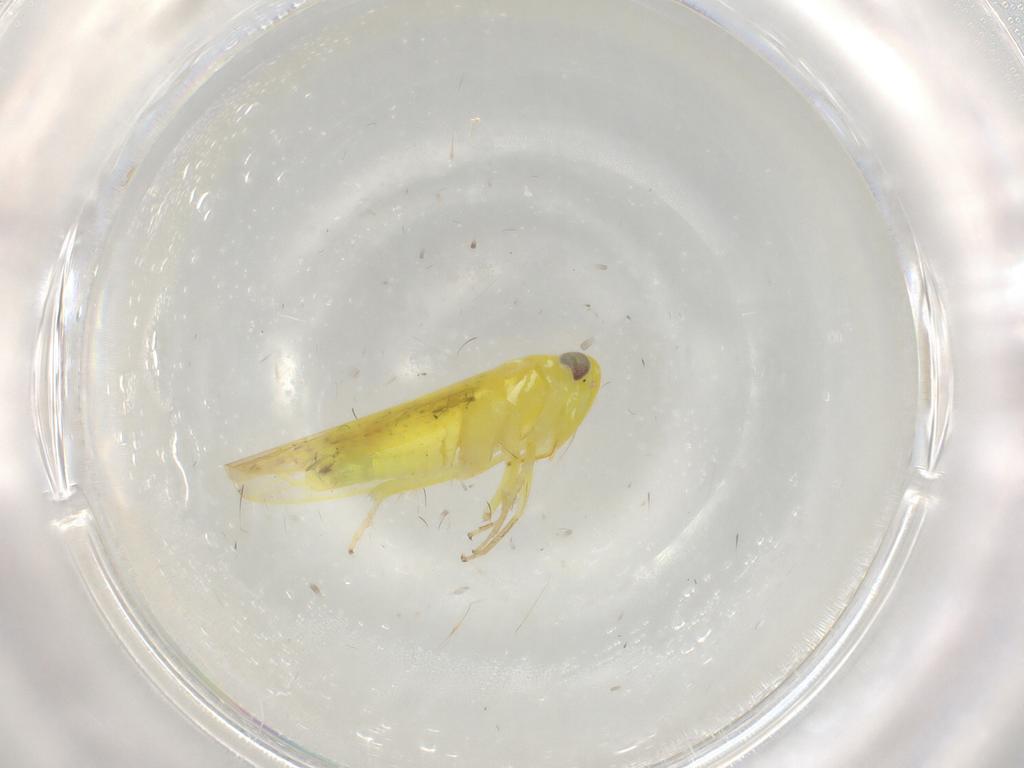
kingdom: Animalia
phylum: Arthropoda
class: Insecta
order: Hemiptera
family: Cicadellidae
